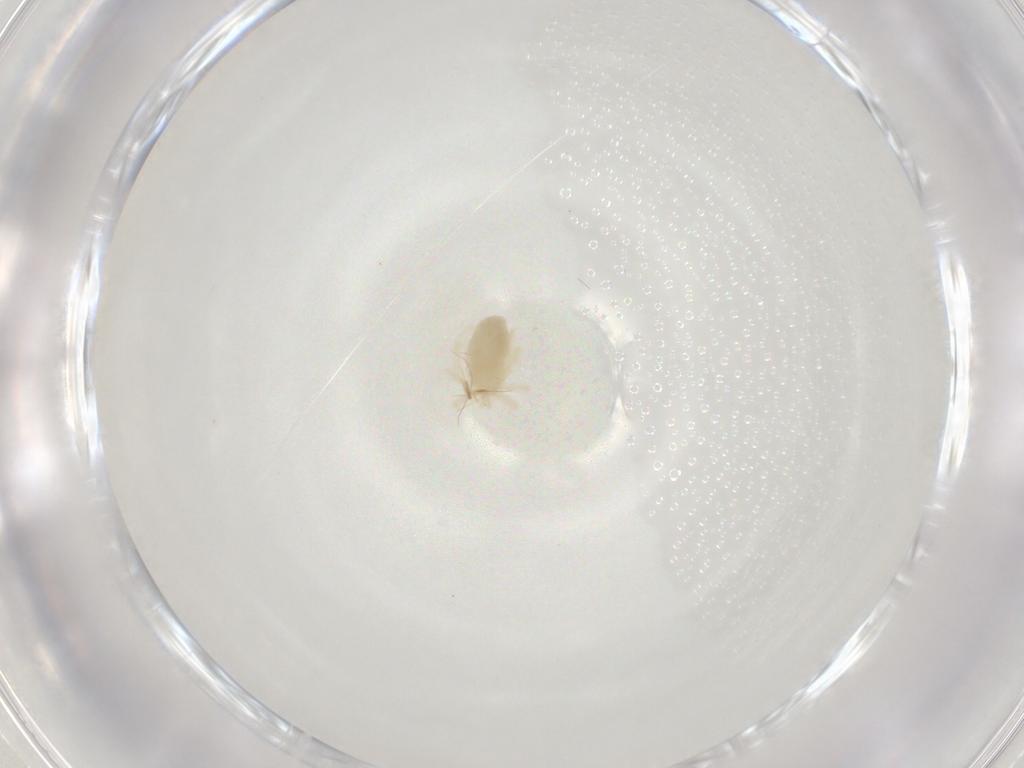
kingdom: Animalia
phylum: Arthropoda
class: Arachnida
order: Trombidiformes
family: Anystidae
